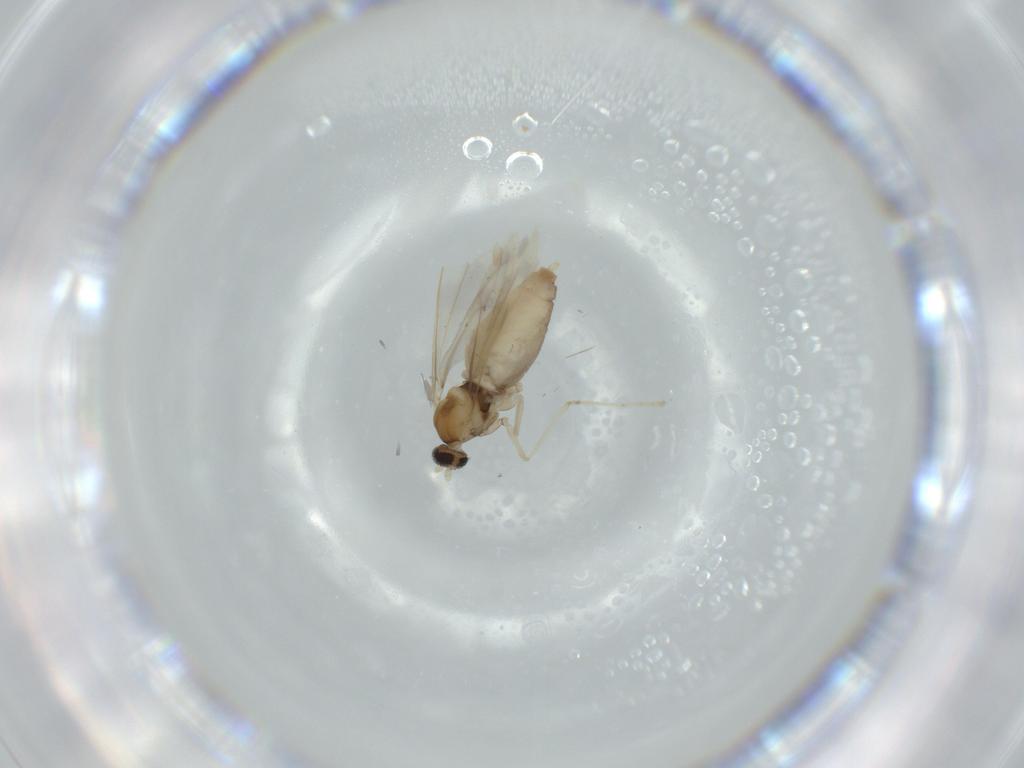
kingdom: Animalia
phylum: Arthropoda
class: Insecta
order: Diptera
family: Cecidomyiidae
